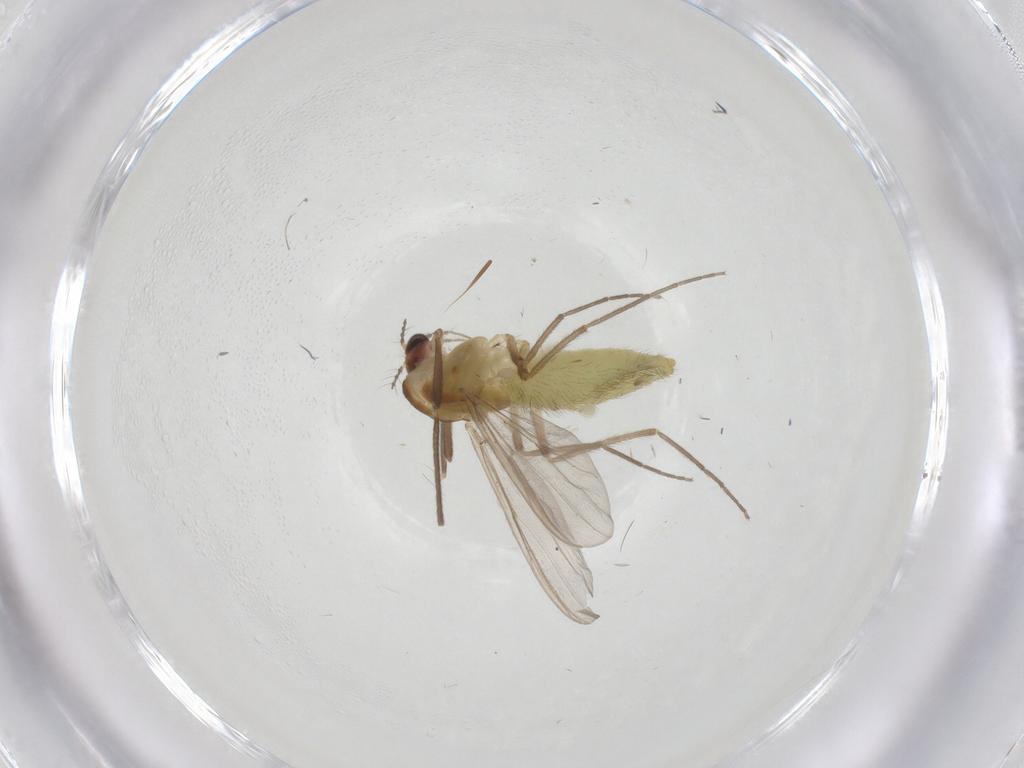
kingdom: Animalia
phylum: Arthropoda
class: Insecta
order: Diptera
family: Chironomidae
